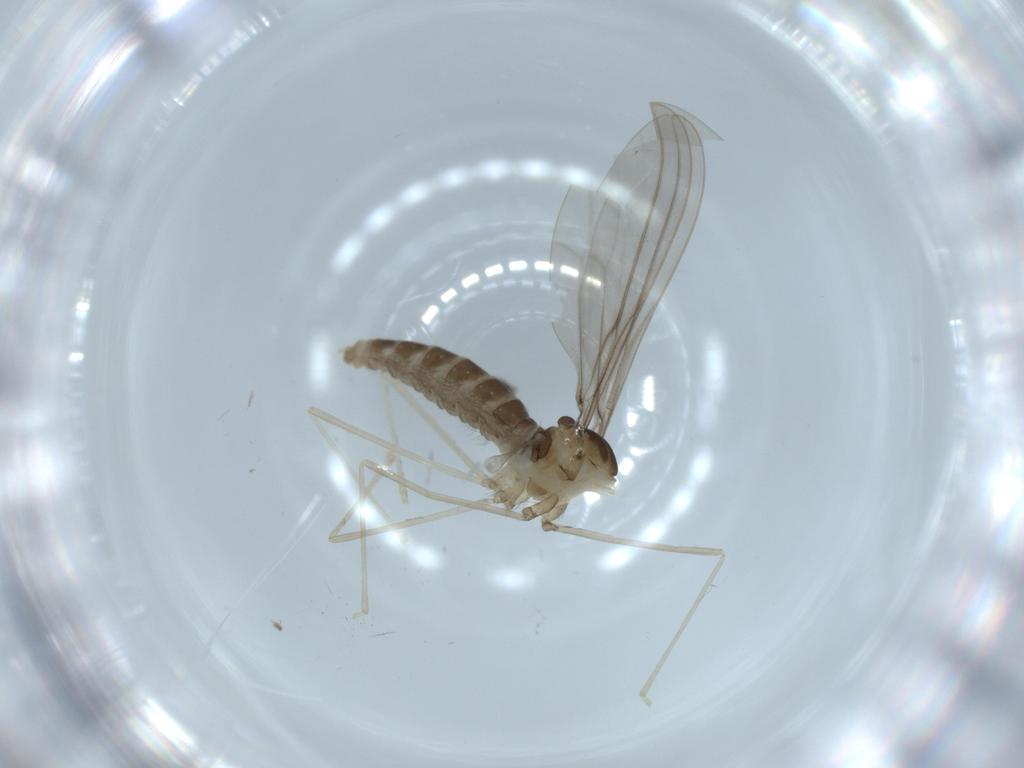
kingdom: Animalia
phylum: Arthropoda
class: Insecta
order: Diptera
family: Cecidomyiidae
